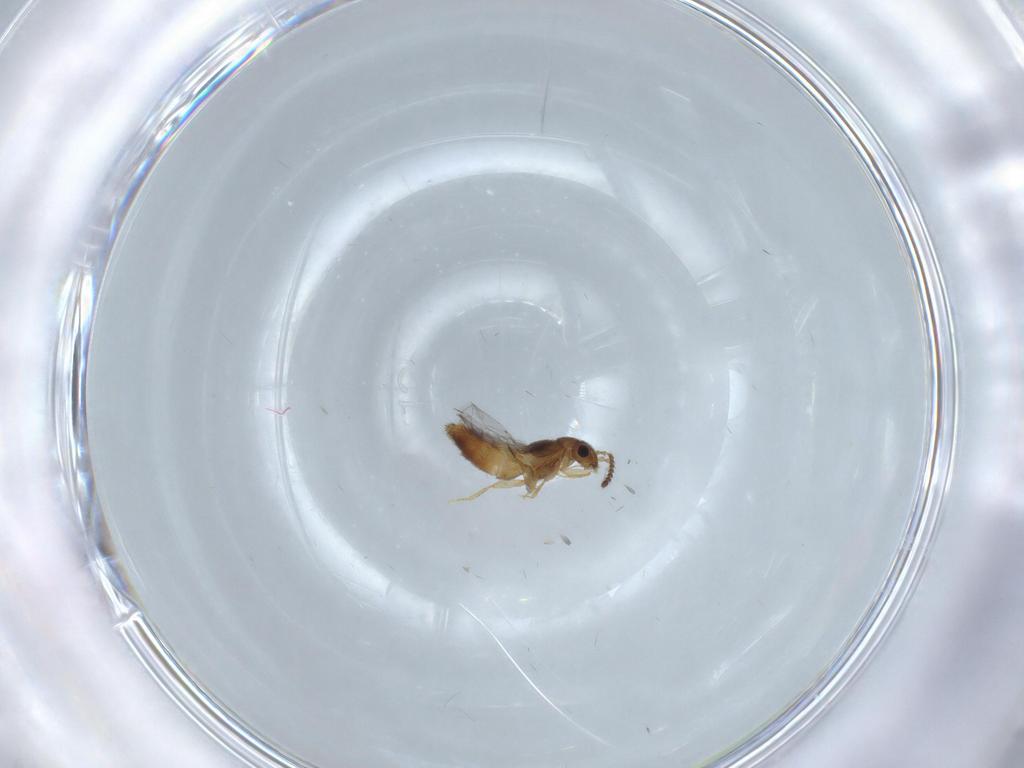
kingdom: Animalia
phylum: Arthropoda
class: Insecta
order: Coleoptera
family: Staphylinidae
